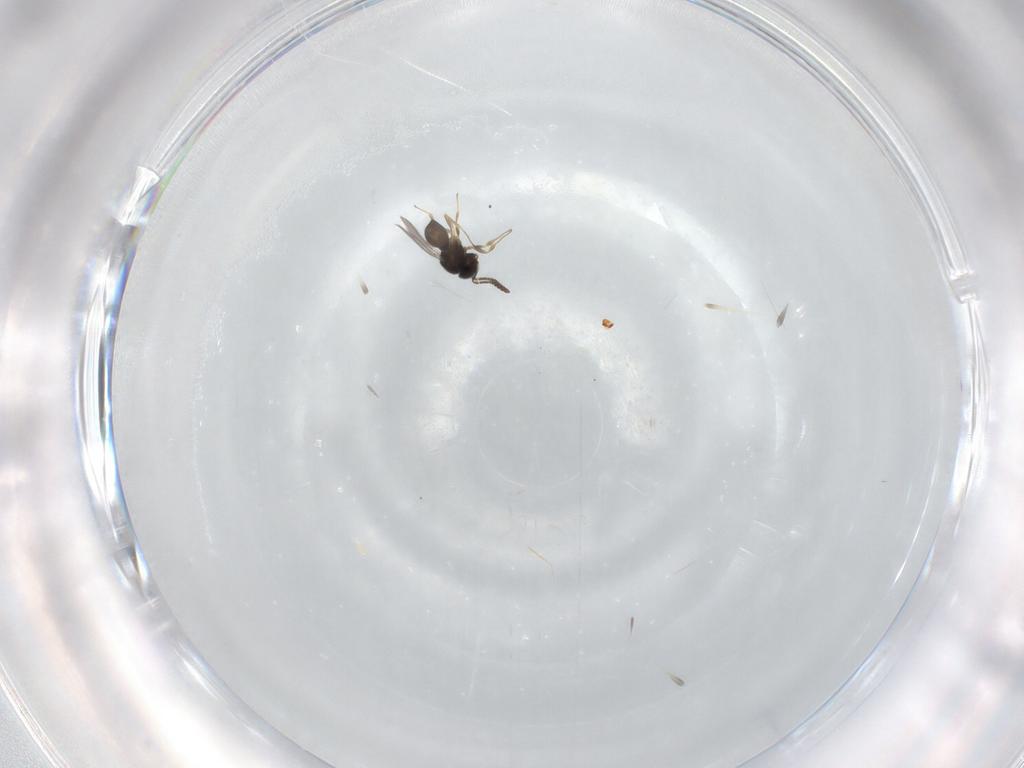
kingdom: Animalia
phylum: Arthropoda
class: Insecta
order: Hymenoptera
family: Scelionidae
